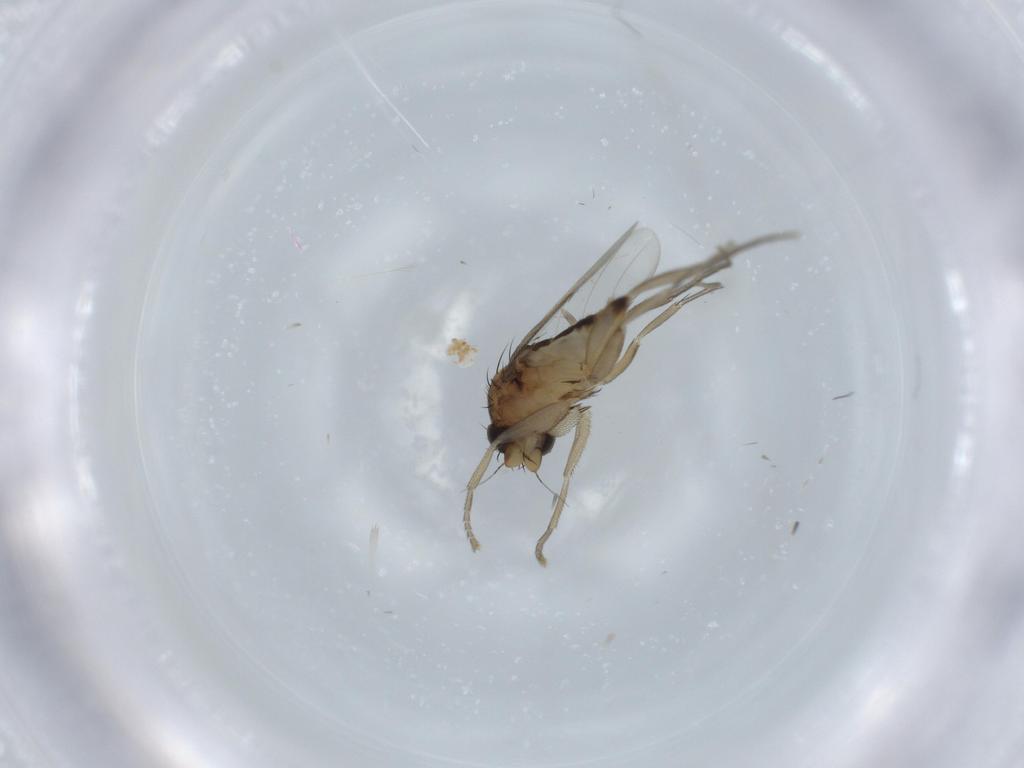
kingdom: Animalia
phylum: Arthropoda
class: Insecta
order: Diptera
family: Phoridae
